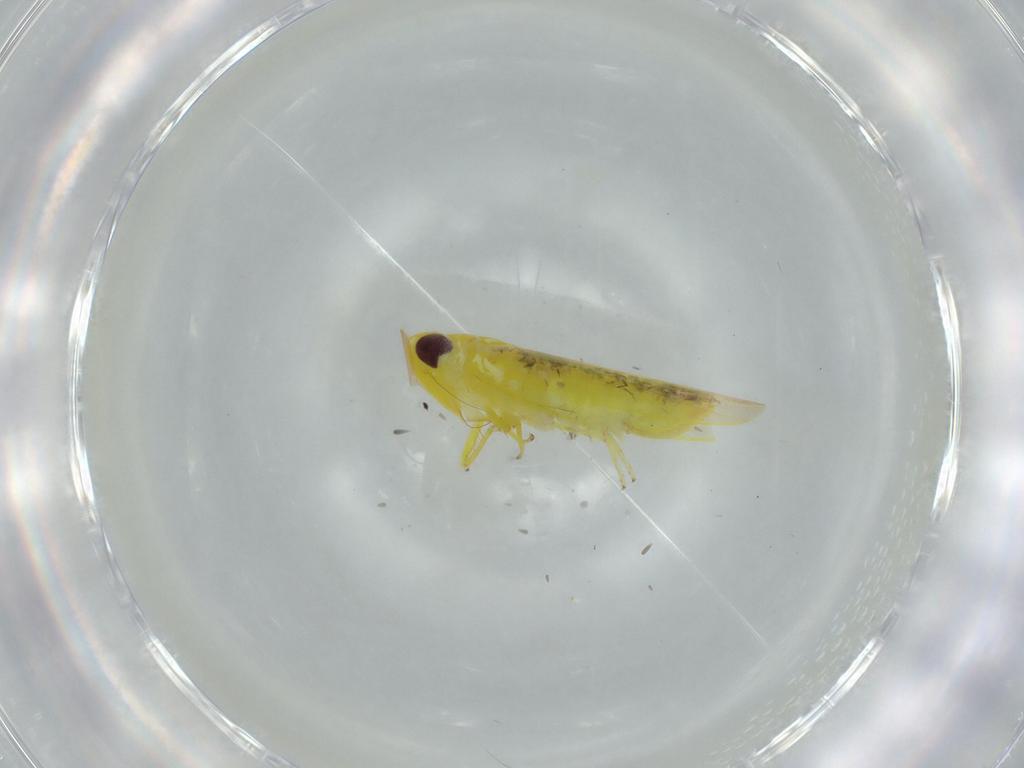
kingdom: Animalia
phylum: Arthropoda
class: Insecta
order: Hemiptera
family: Cicadellidae
